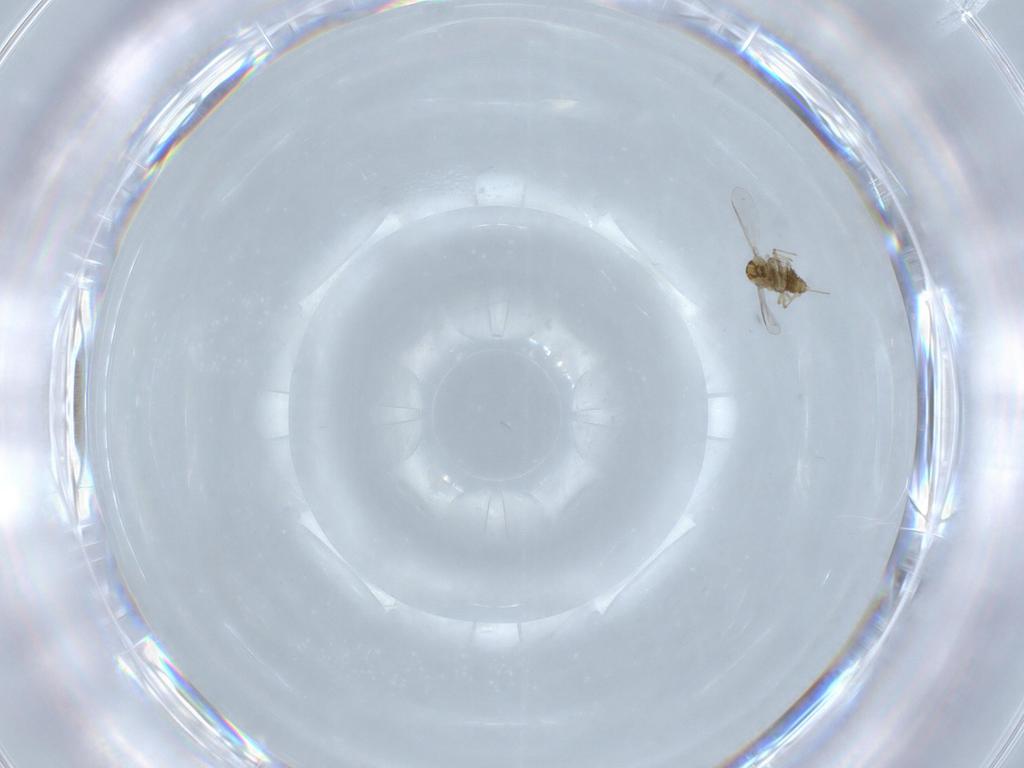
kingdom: Animalia
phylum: Arthropoda
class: Insecta
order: Diptera
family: Chironomidae
